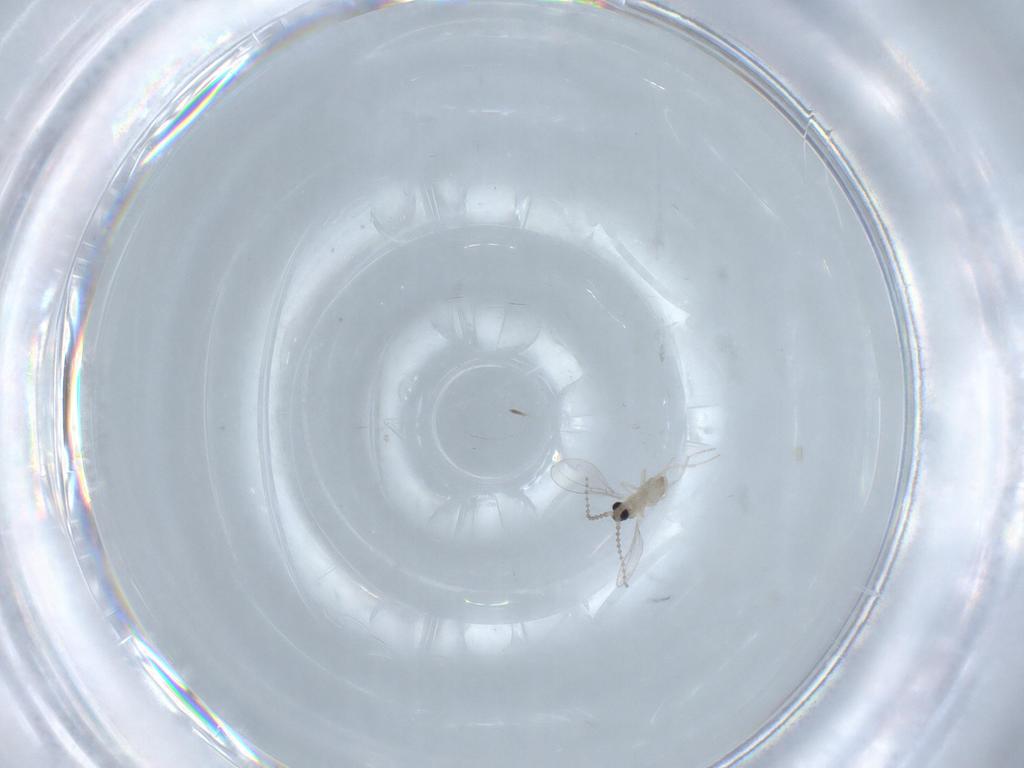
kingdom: Animalia
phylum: Arthropoda
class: Insecta
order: Diptera
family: Cecidomyiidae
